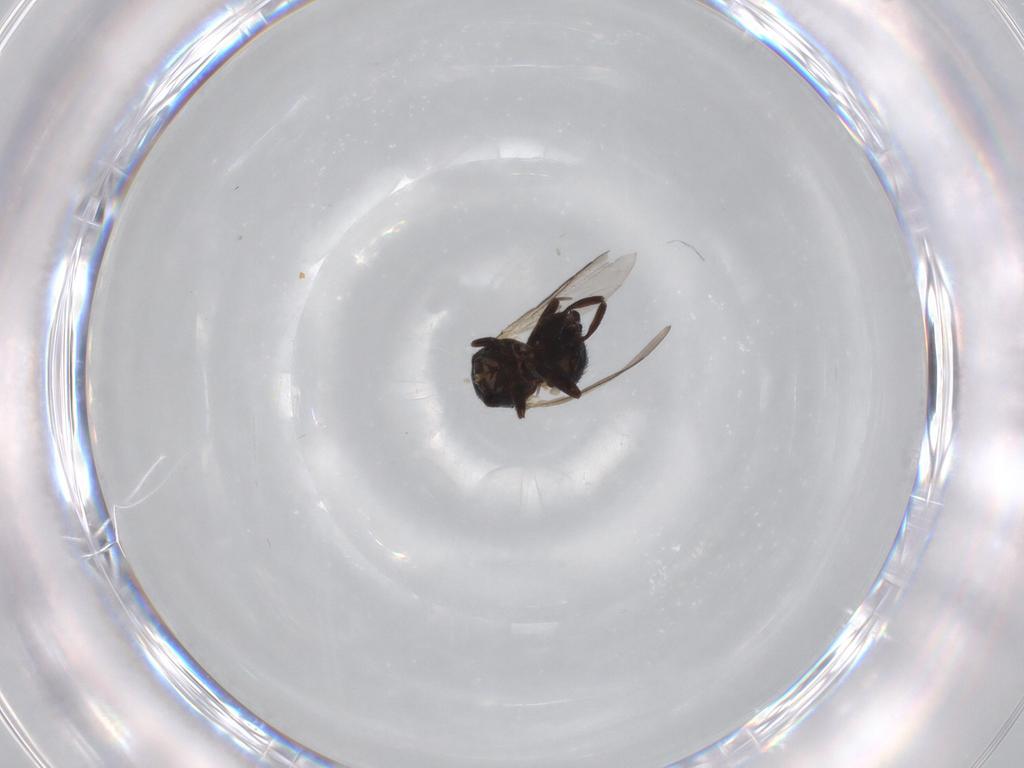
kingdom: Animalia
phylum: Arthropoda
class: Insecta
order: Diptera
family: Agromyzidae
